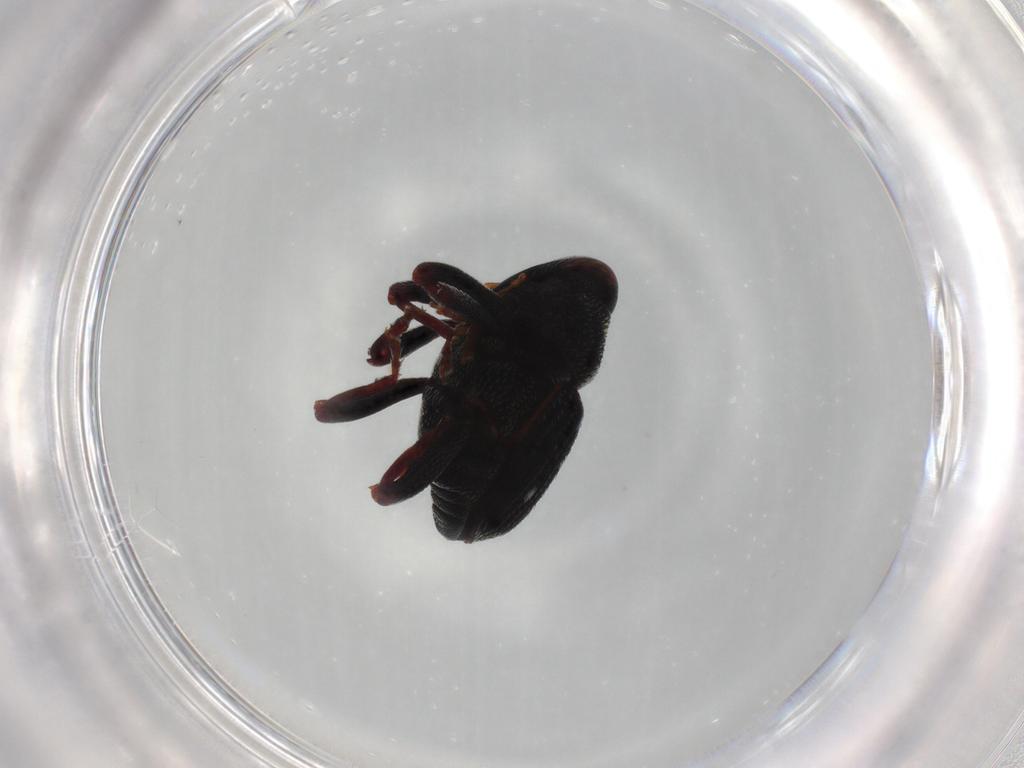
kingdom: Animalia
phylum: Arthropoda
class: Insecta
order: Coleoptera
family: Curculionidae
